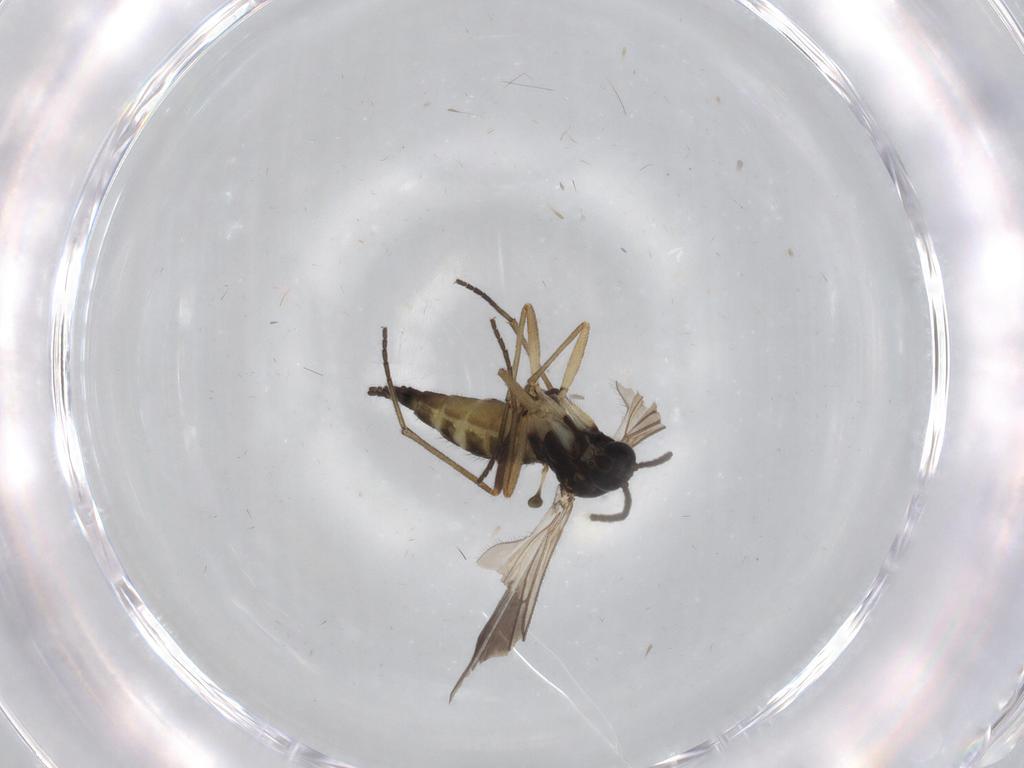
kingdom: Animalia
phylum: Arthropoda
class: Insecta
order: Diptera
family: Sciaridae
